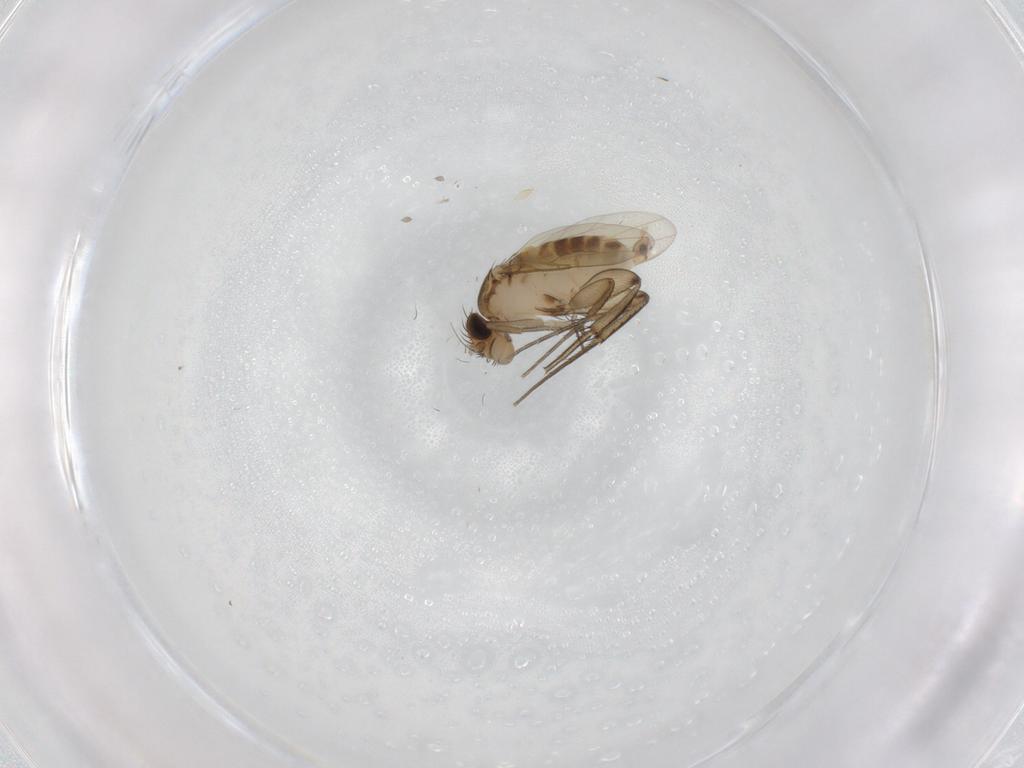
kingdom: Animalia
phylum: Arthropoda
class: Insecta
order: Diptera
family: Phoridae
